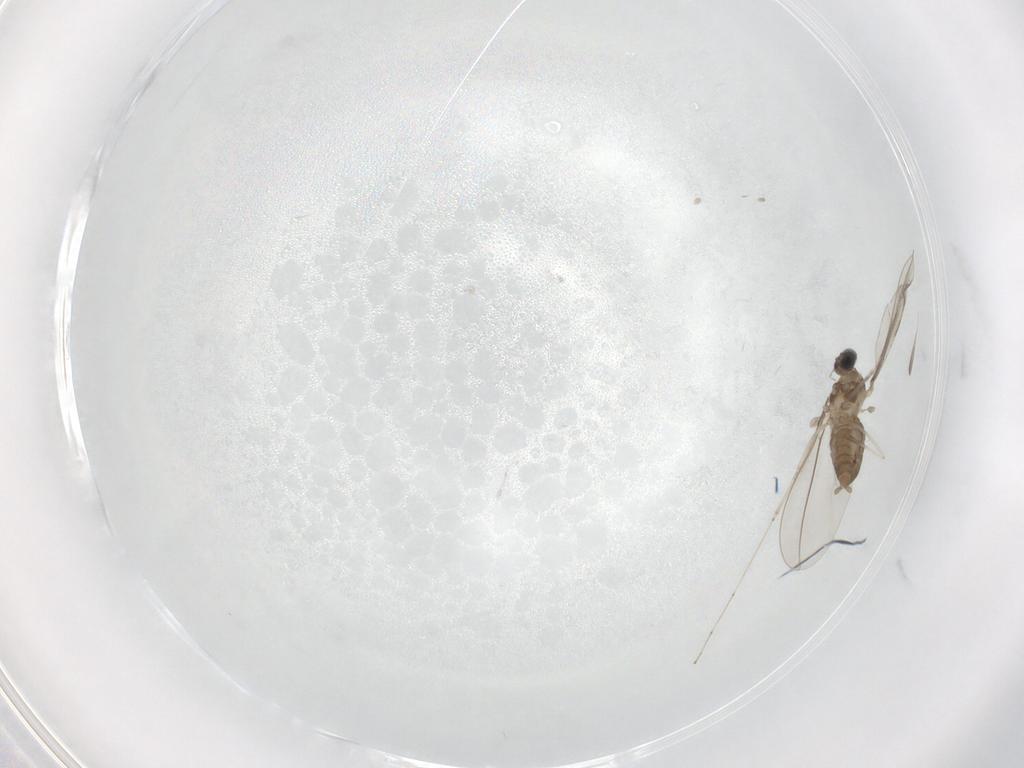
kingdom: Animalia
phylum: Arthropoda
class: Insecta
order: Diptera
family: Cecidomyiidae
